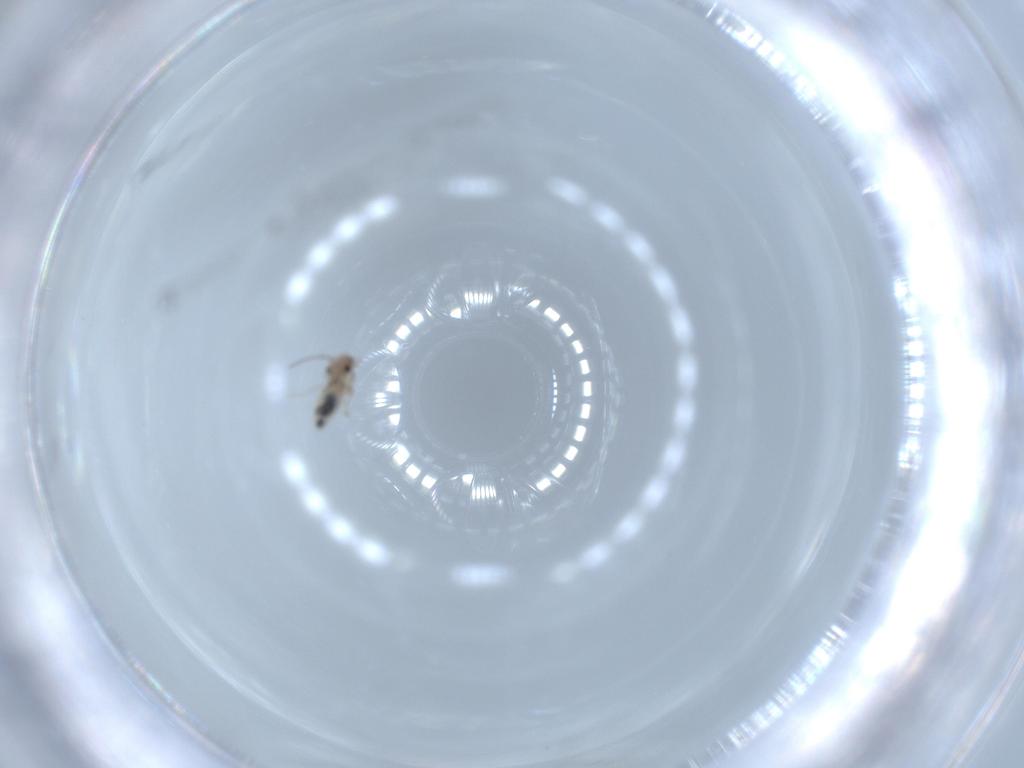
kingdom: Animalia
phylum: Arthropoda
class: Insecta
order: Psocodea
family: Lepidopsocidae
